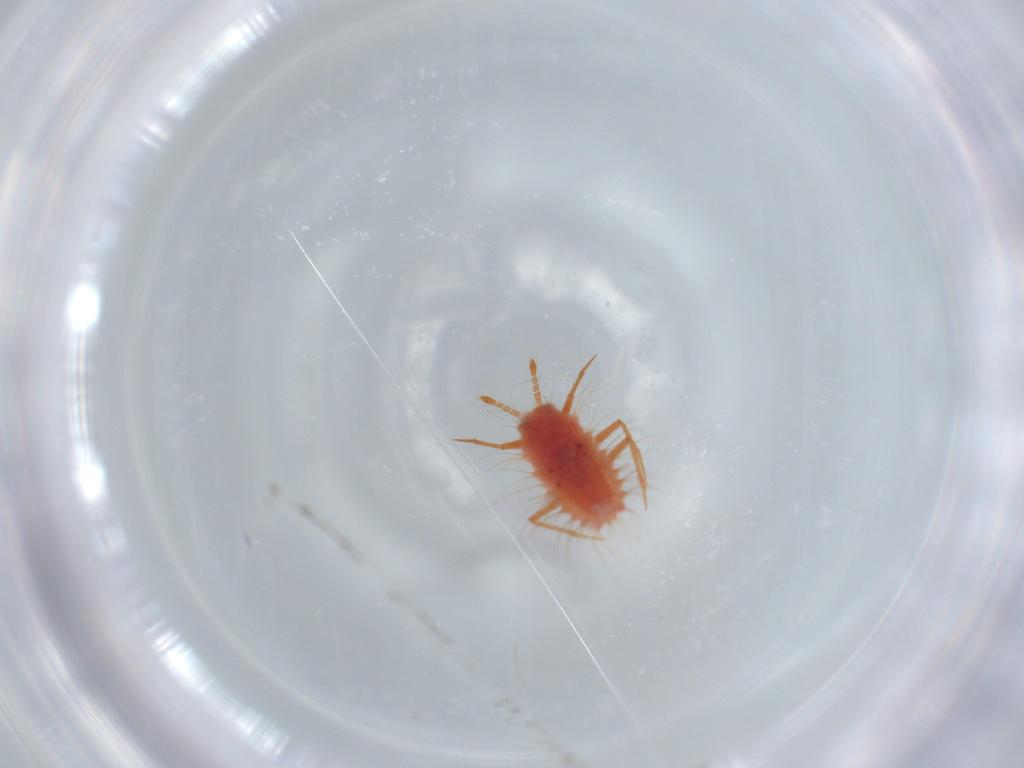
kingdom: Animalia
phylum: Arthropoda
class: Insecta
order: Hemiptera
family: Monophlebidae
